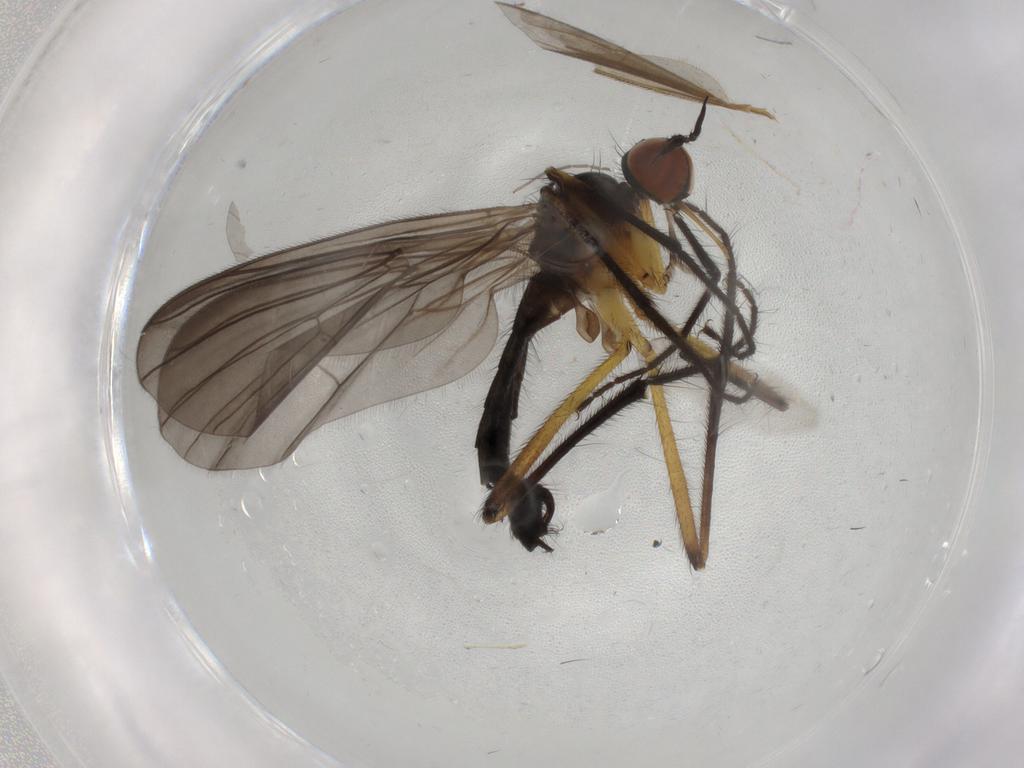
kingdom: Animalia
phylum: Arthropoda
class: Insecta
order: Diptera
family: Empididae
